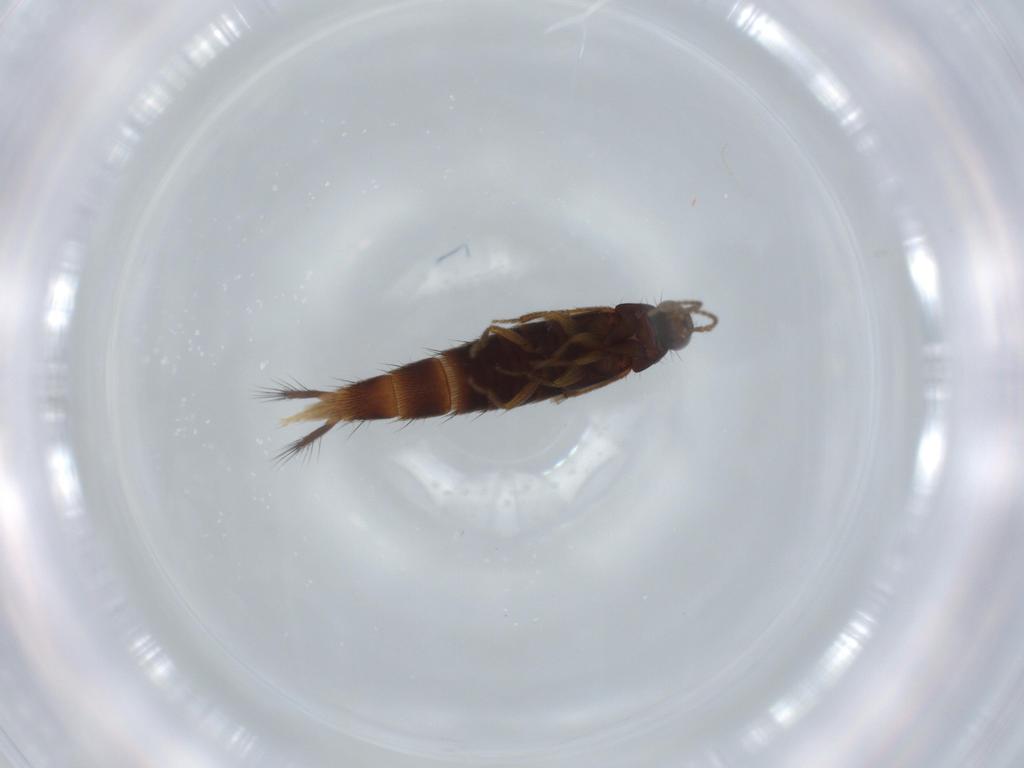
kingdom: Animalia
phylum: Arthropoda
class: Insecta
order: Coleoptera
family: Staphylinidae
